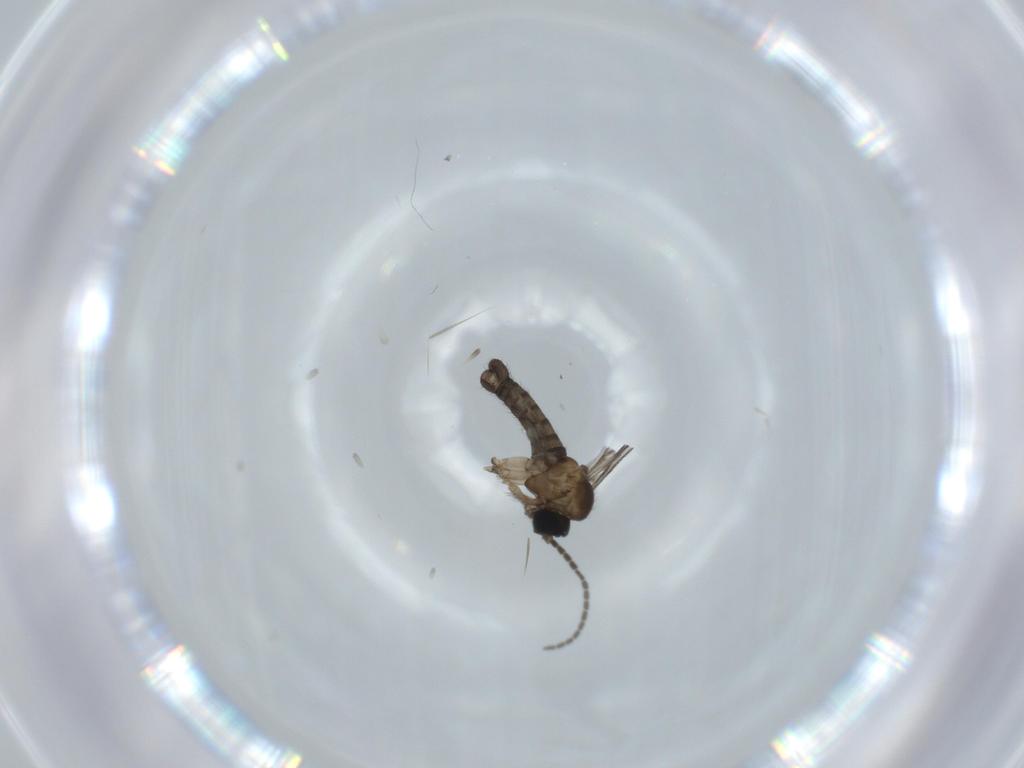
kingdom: Animalia
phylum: Arthropoda
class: Insecta
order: Diptera
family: Sciaridae
